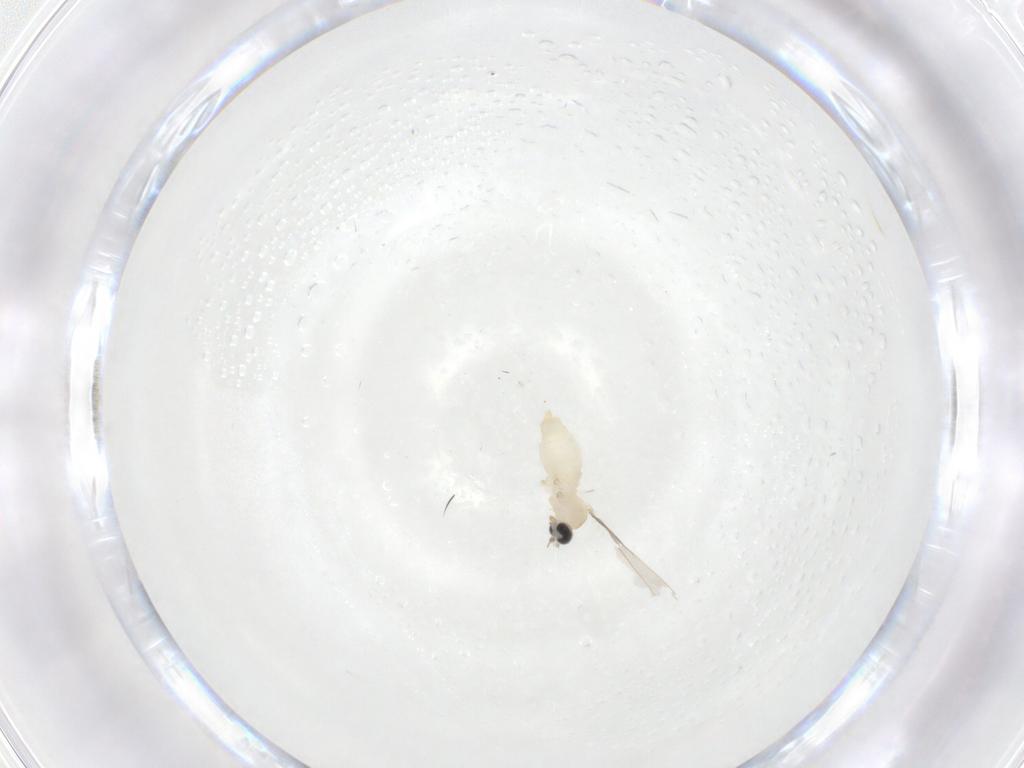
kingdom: Animalia
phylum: Arthropoda
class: Insecta
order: Diptera
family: Cecidomyiidae
